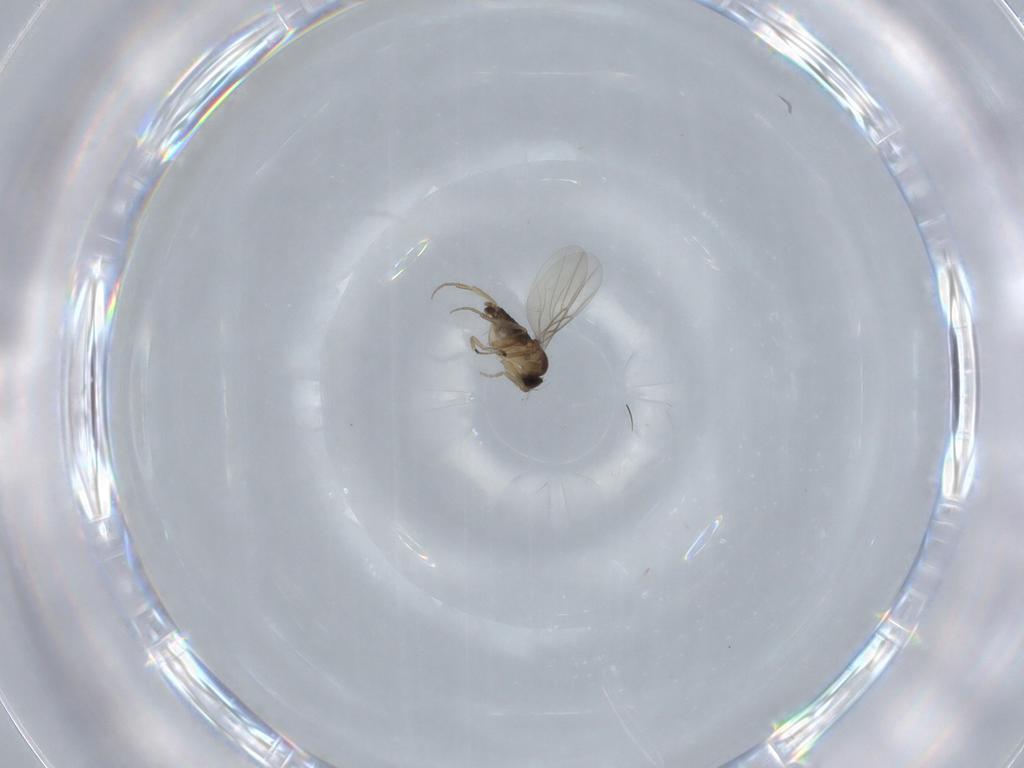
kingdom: Animalia
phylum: Arthropoda
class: Insecta
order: Diptera
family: Phoridae
